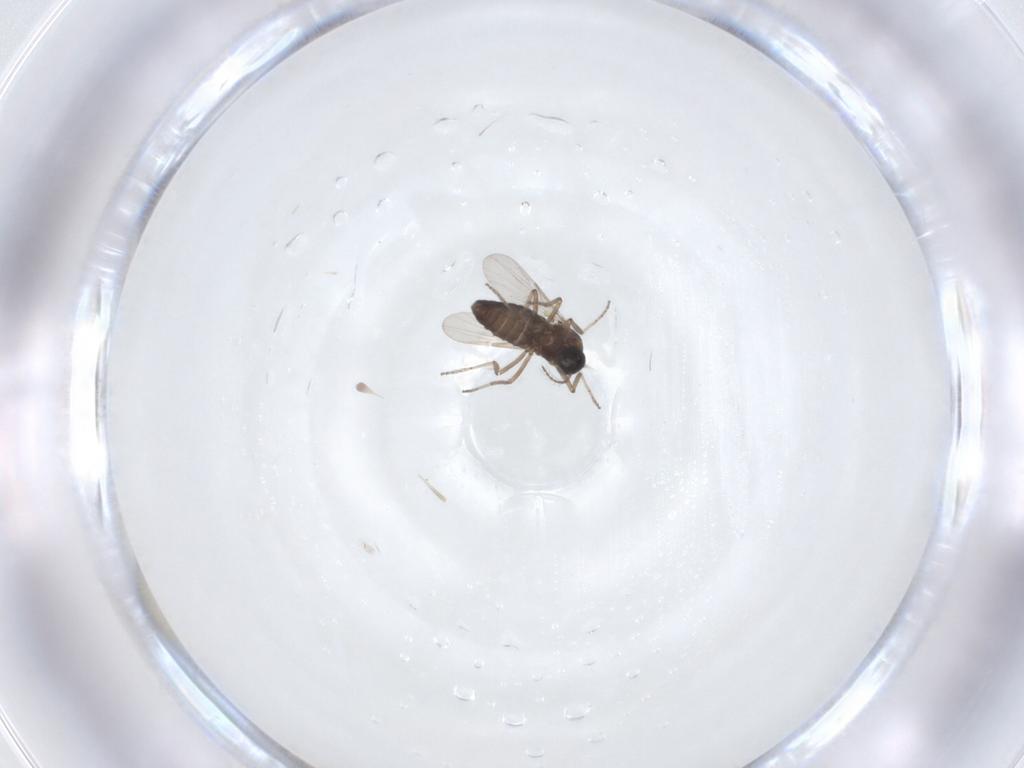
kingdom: Animalia
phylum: Arthropoda
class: Insecta
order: Diptera
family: Ceratopogonidae
